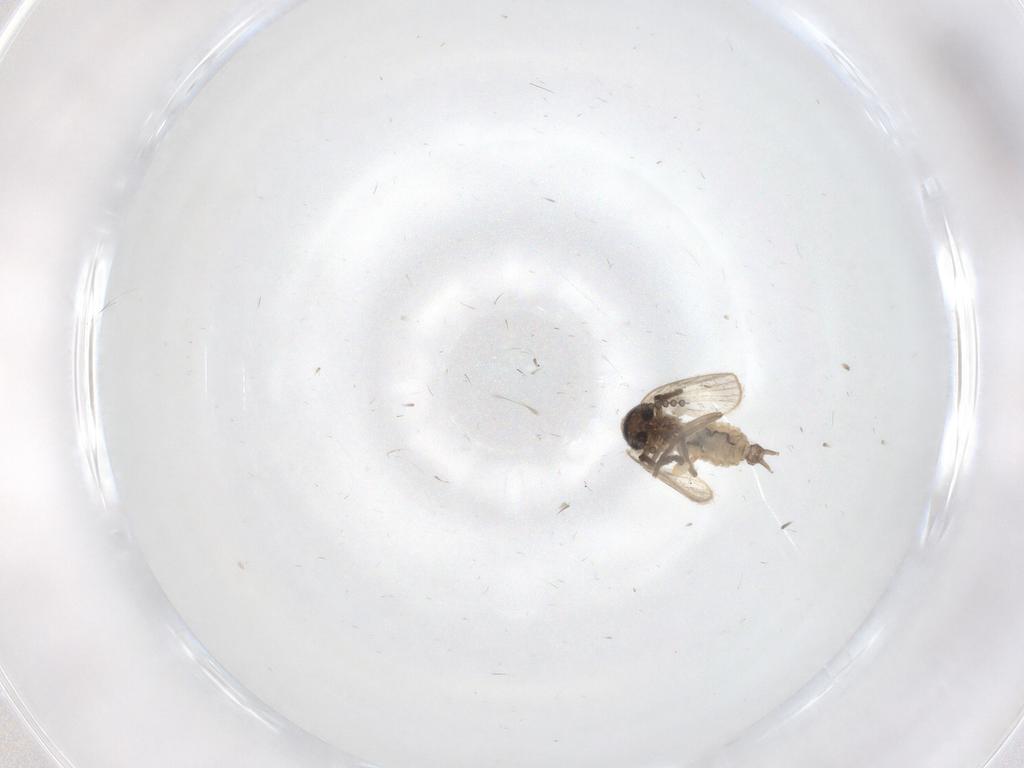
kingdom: Animalia
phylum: Arthropoda
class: Insecta
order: Diptera
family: Psychodidae
